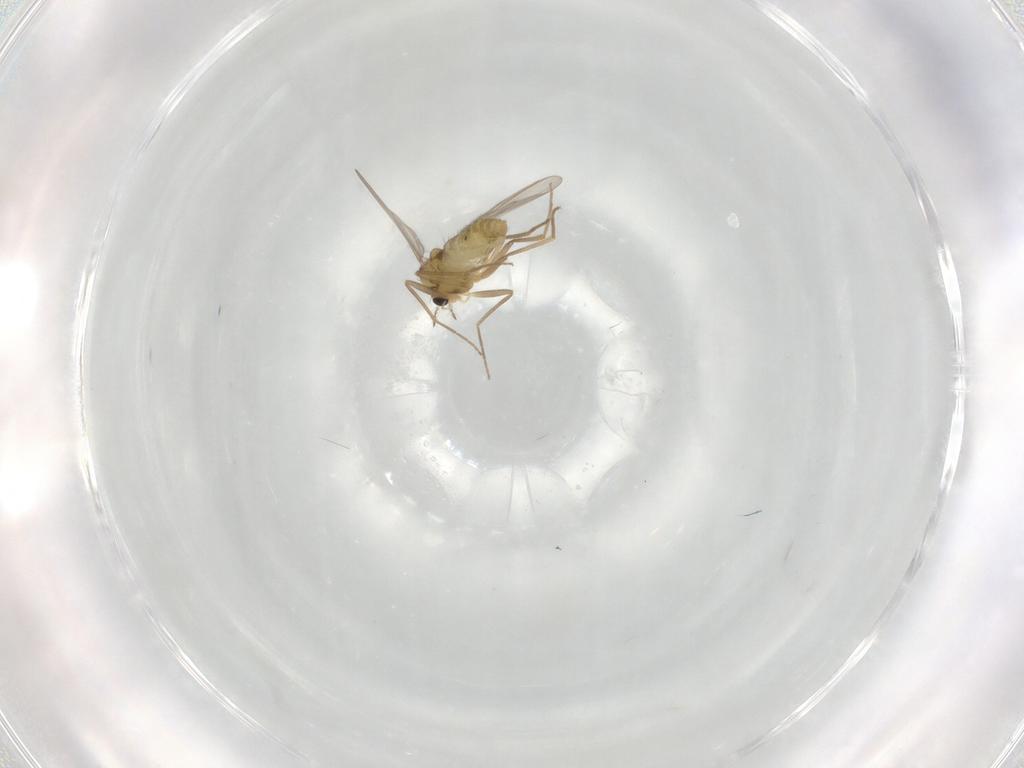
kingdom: Animalia
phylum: Arthropoda
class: Insecta
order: Diptera
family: Chironomidae
